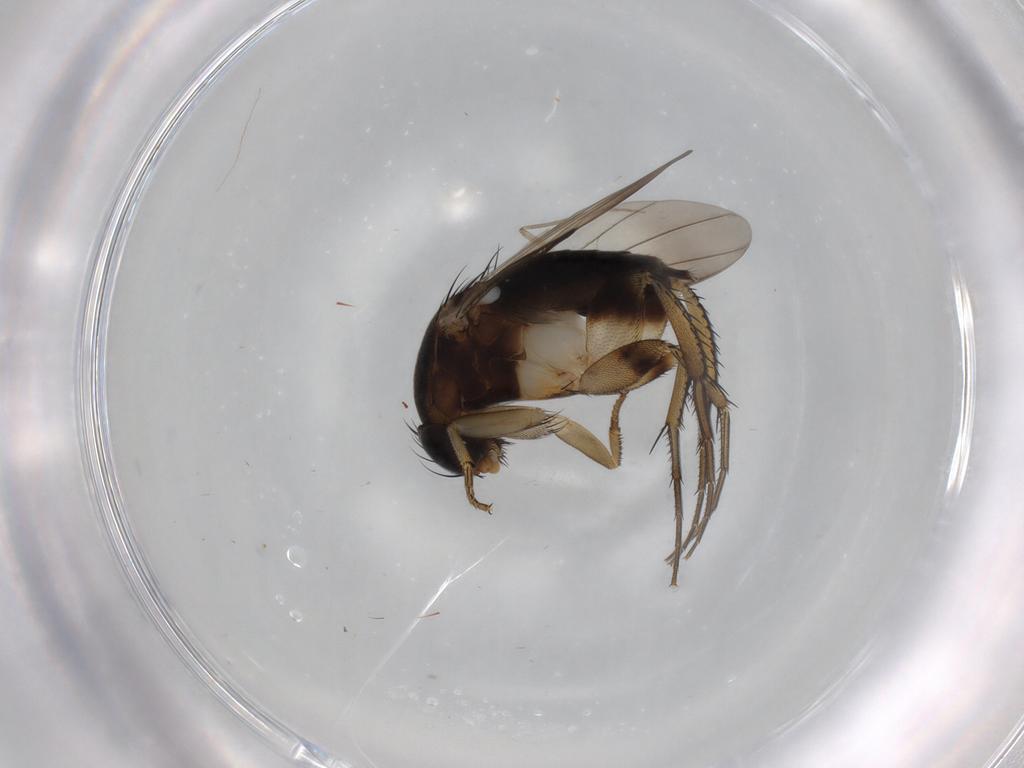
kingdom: Animalia
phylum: Arthropoda
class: Insecta
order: Diptera
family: Phoridae
